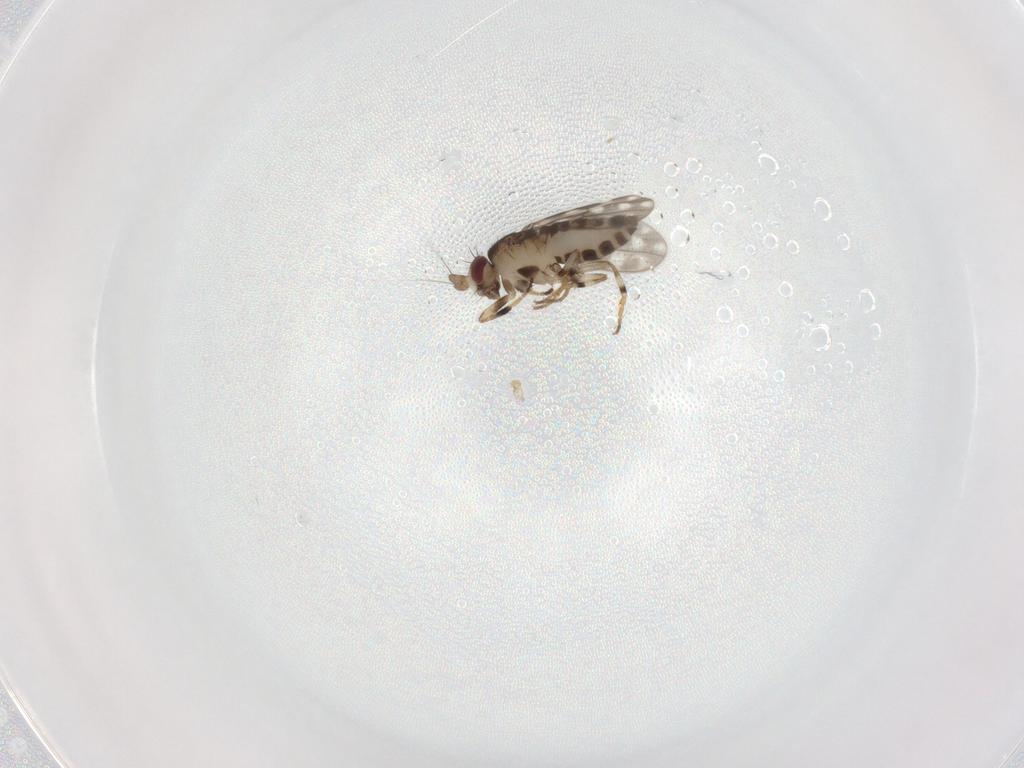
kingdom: Animalia
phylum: Arthropoda
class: Insecta
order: Diptera
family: Sphaeroceridae
